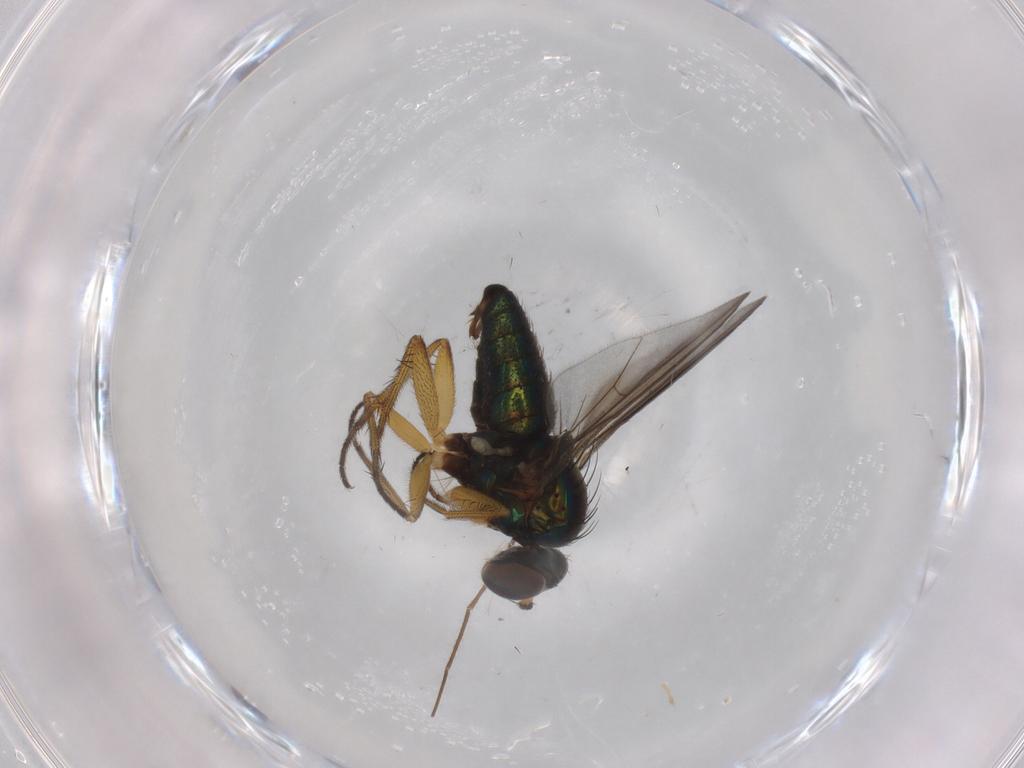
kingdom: Animalia
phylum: Arthropoda
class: Insecta
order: Diptera
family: Dolichopodidae
